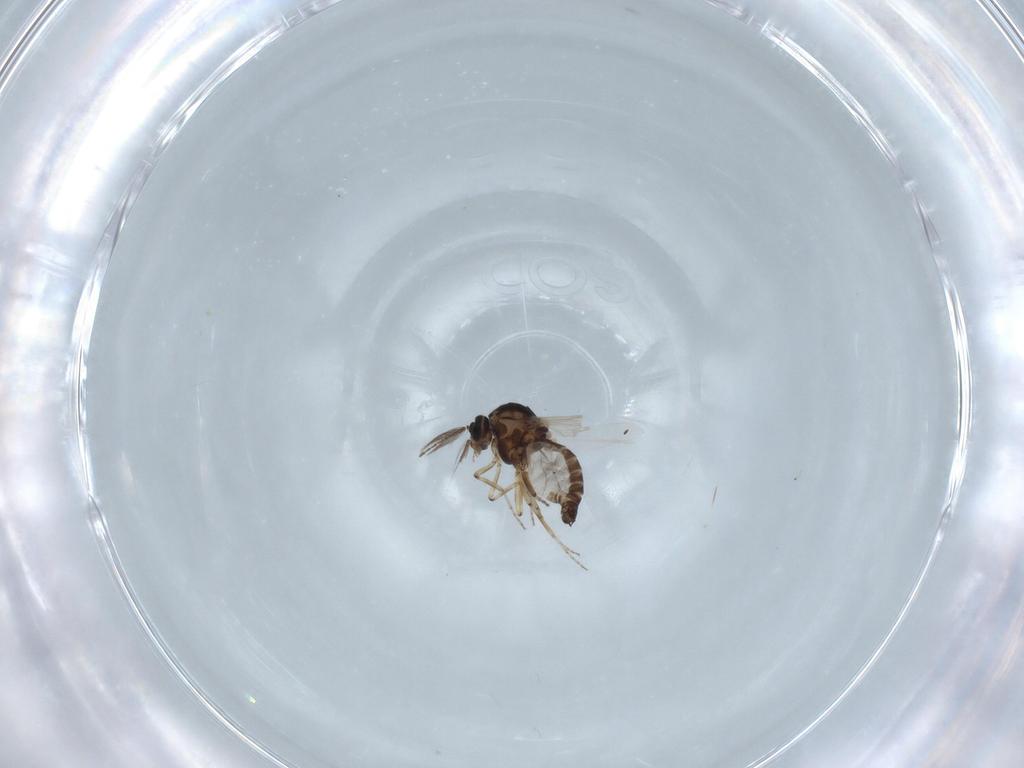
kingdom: Animalia
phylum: Arthropoda
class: Insecta
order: Diptera
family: Ceratopogonidae
